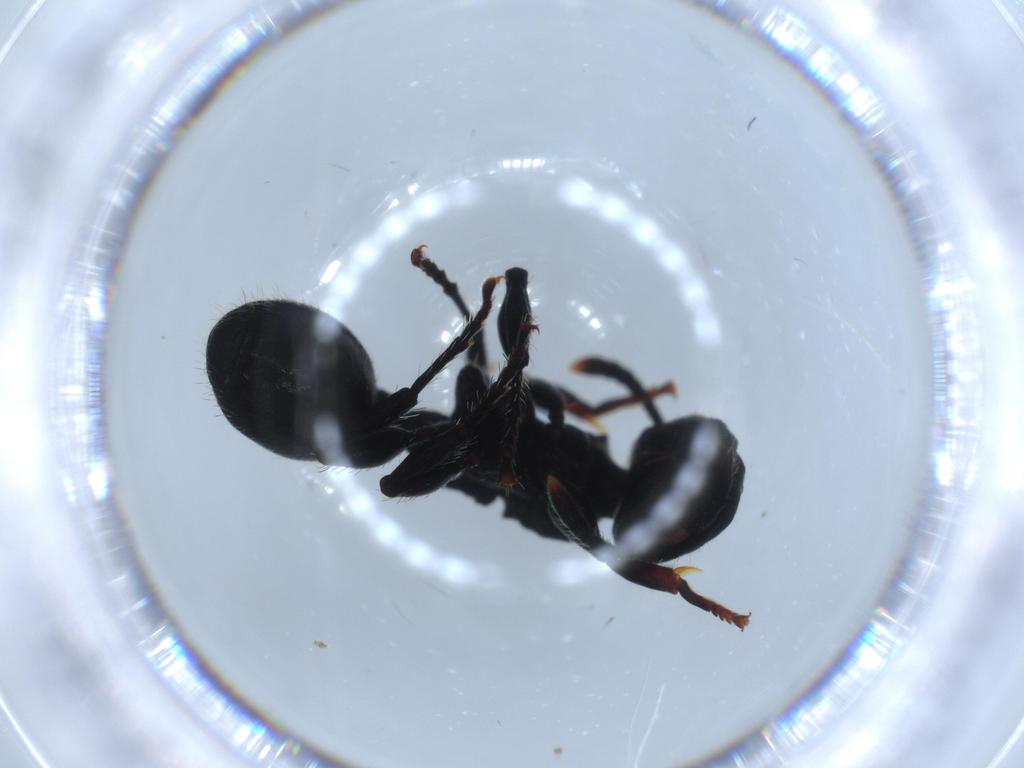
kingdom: Animalia
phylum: Arthropoda
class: Insecta
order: Hymenoptera
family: Formicidae
